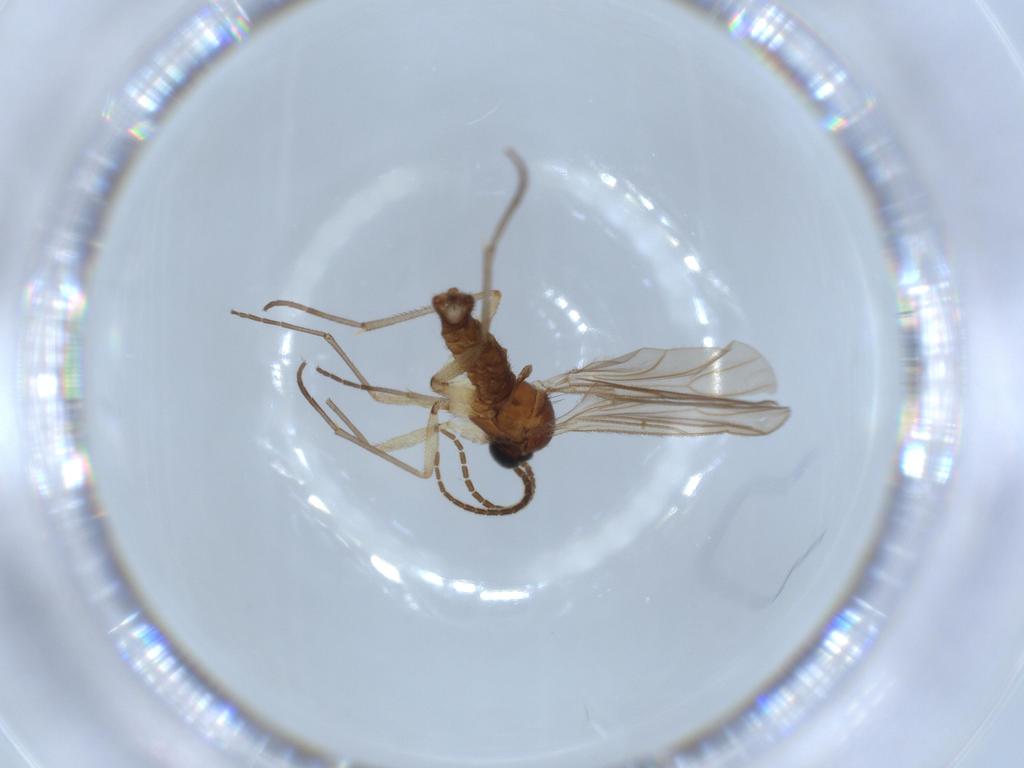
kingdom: Animalia
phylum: Arthropoda
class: Insecta
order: Diptera
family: Sciaridae
